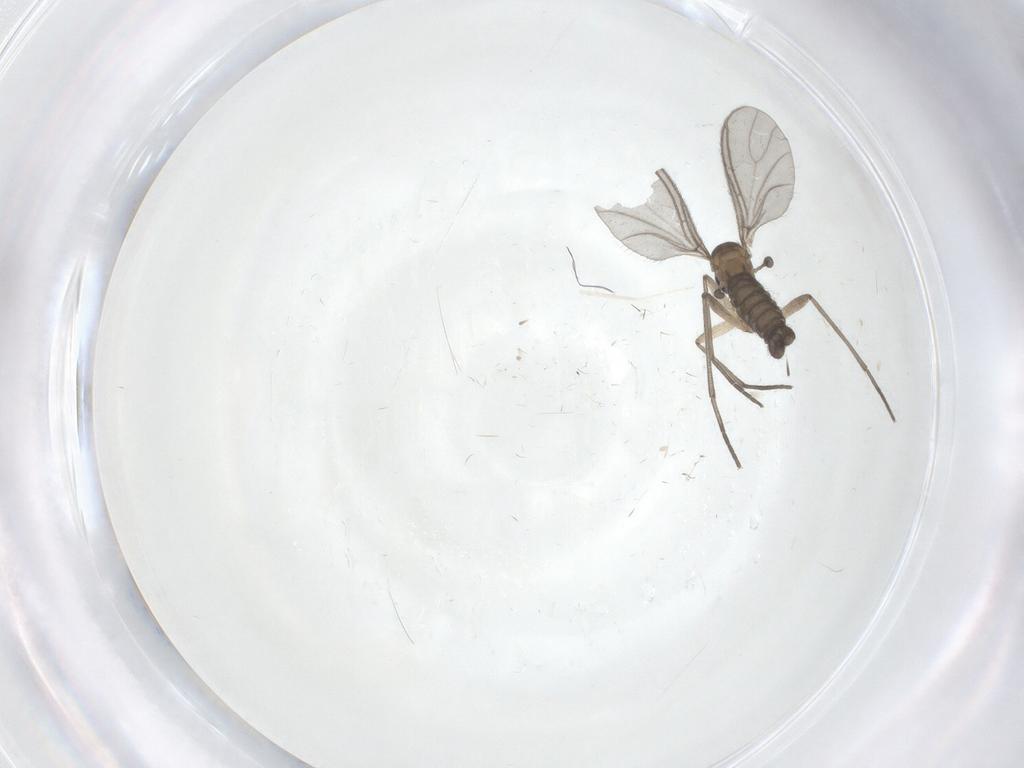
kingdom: Animalia
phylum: Arthropoda
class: Insecta
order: Diptera
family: Sciaridae
